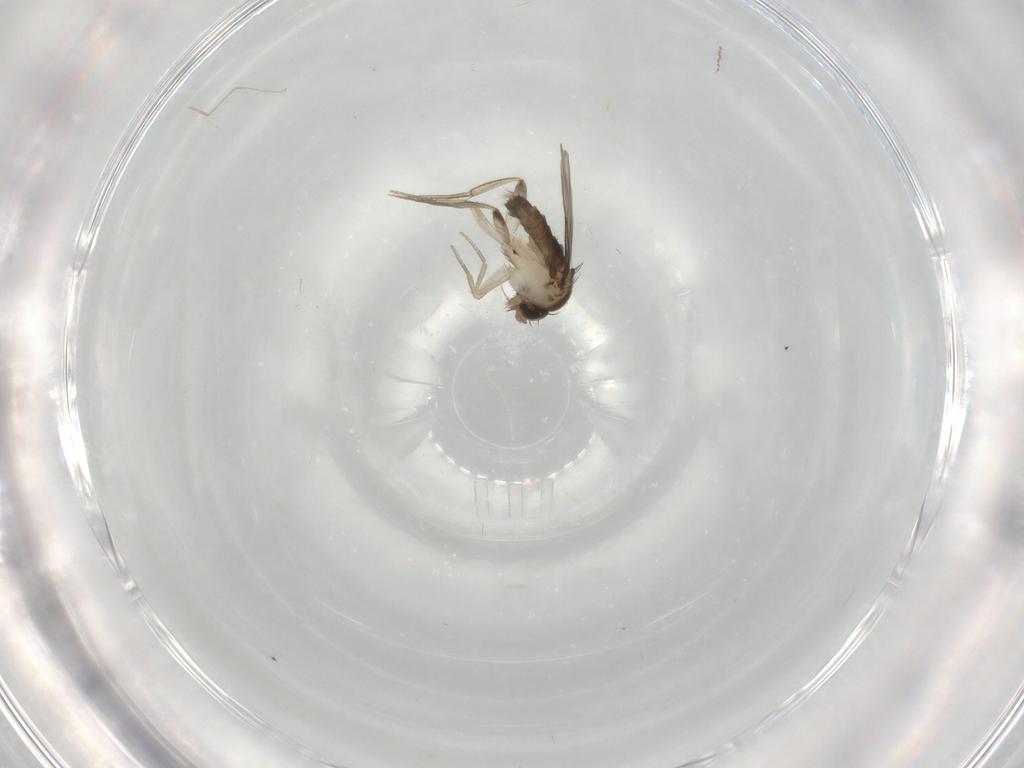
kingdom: Animalia
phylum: Arthropoda
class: Insecta
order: Diptera
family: Phoridae
